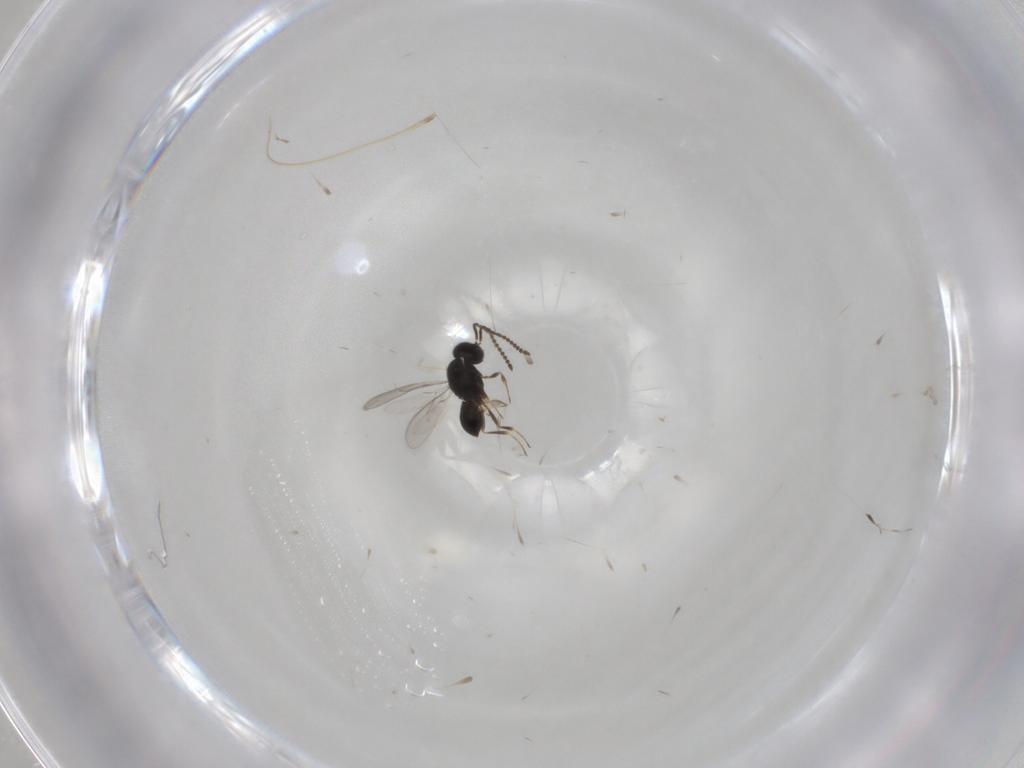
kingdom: Animalia
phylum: Arthropoda
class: Insecta
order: Hymenoptera
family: Scelionidae
